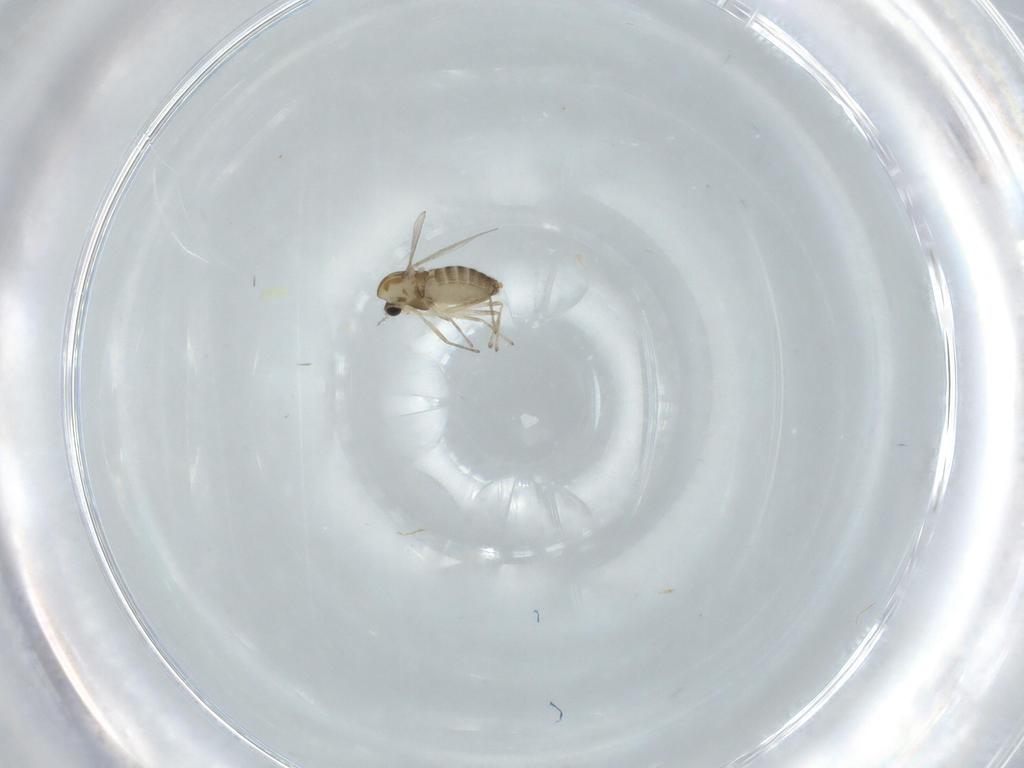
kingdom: Animalia
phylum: Arthropoda
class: Insecta
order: Diptera
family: Chironomidae
